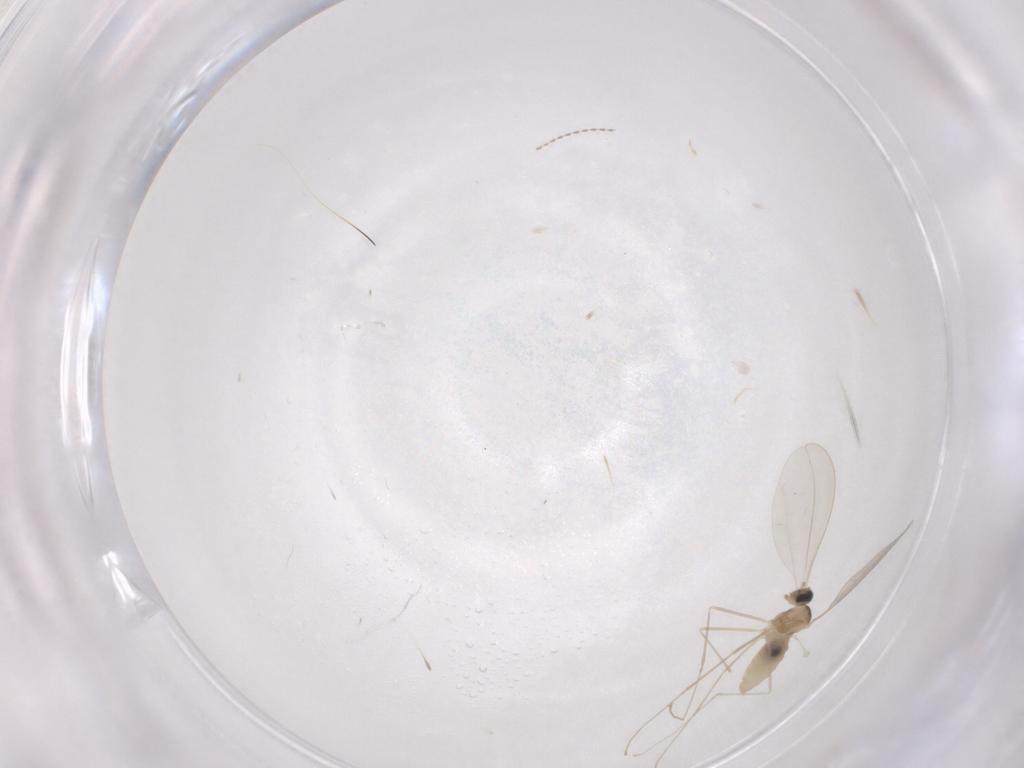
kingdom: Animalia
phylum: Arthropoda
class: Insecta
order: Diptera
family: Cecidomyiidae
